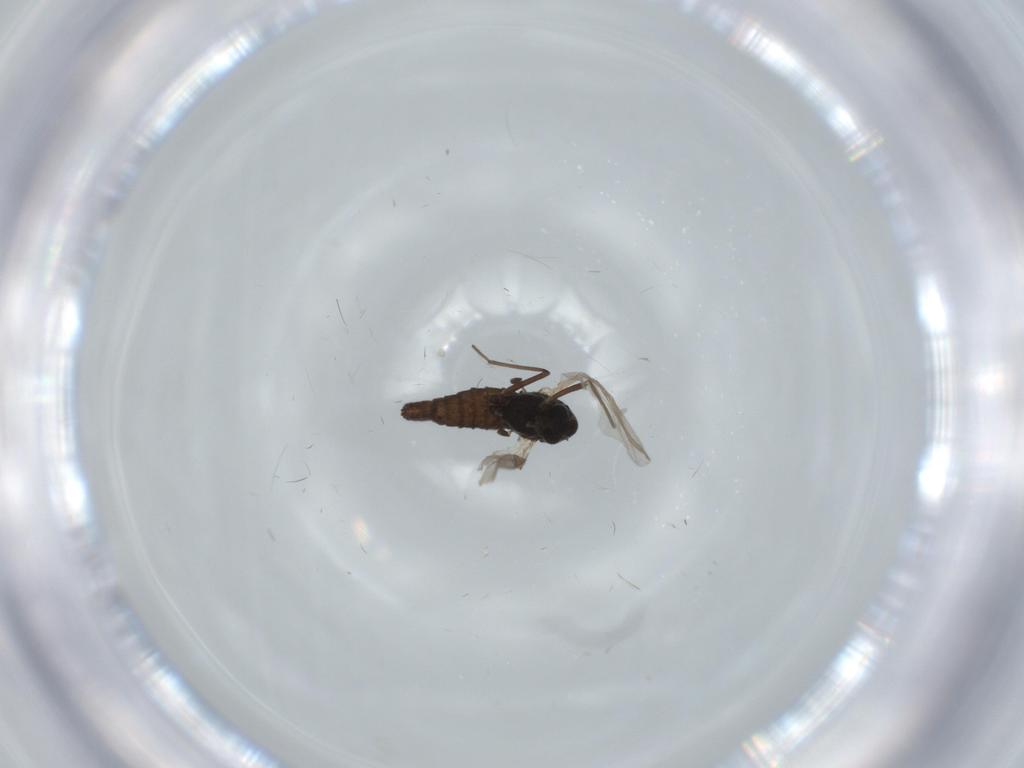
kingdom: Animalia
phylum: Arthropoda
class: Insecta
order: Diptera
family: Chironomidae
